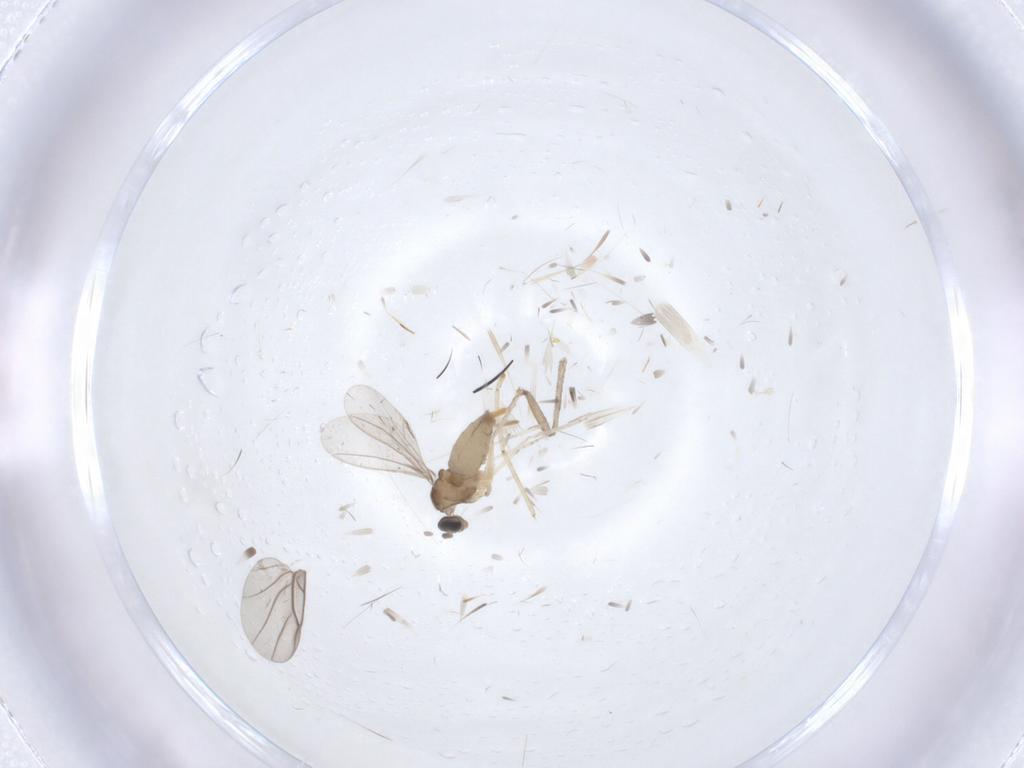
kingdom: Animalia
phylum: Arthropoda
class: Insecta
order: Diptera
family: Cecidomyiidae
